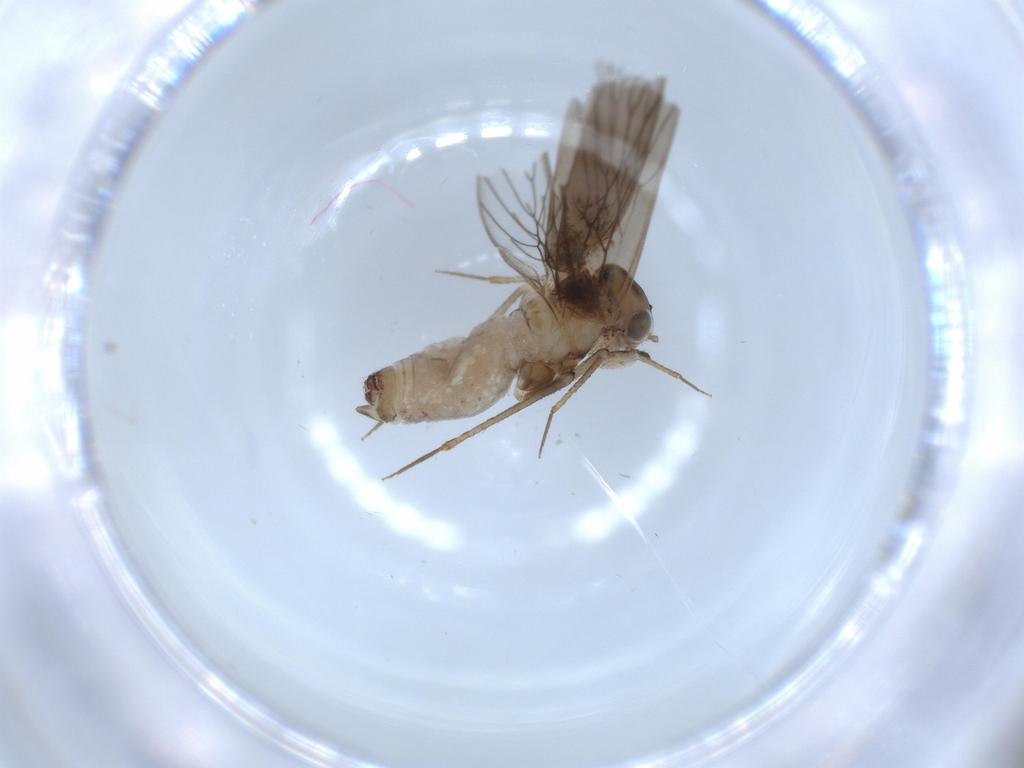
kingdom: Animalia
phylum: Arthropoda
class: Insecta
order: Psocodea
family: Lepidopsocidae
